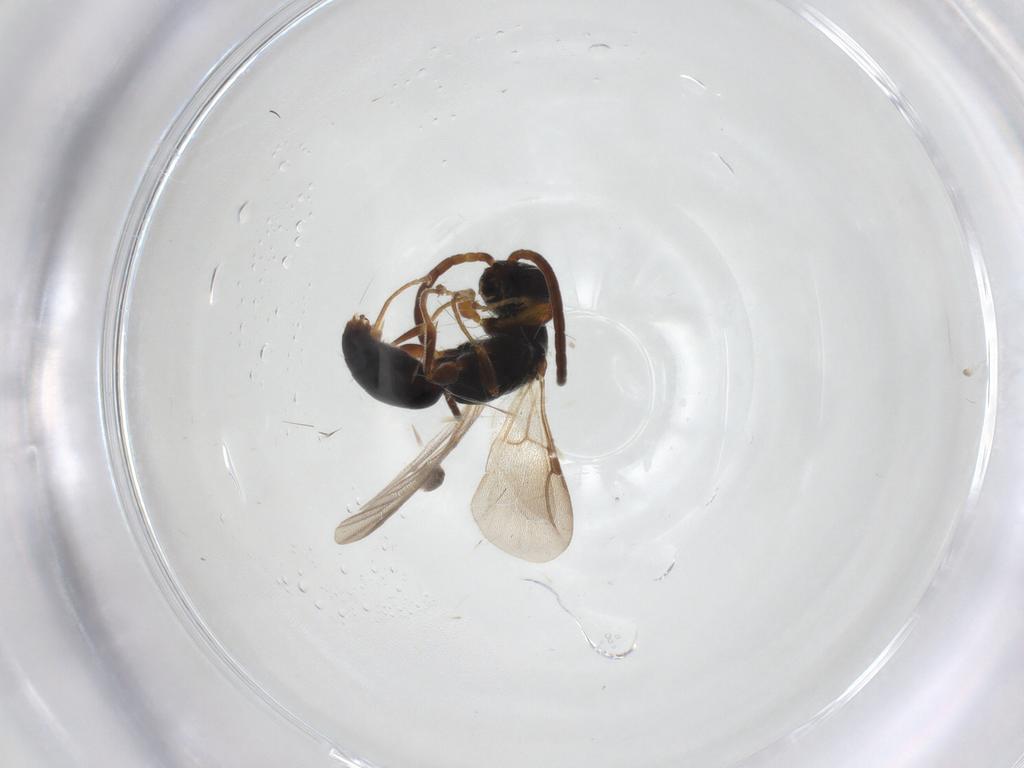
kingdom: Animalia
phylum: Arthropoda
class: Insecta
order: Hymenoptera
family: Bethylidae
